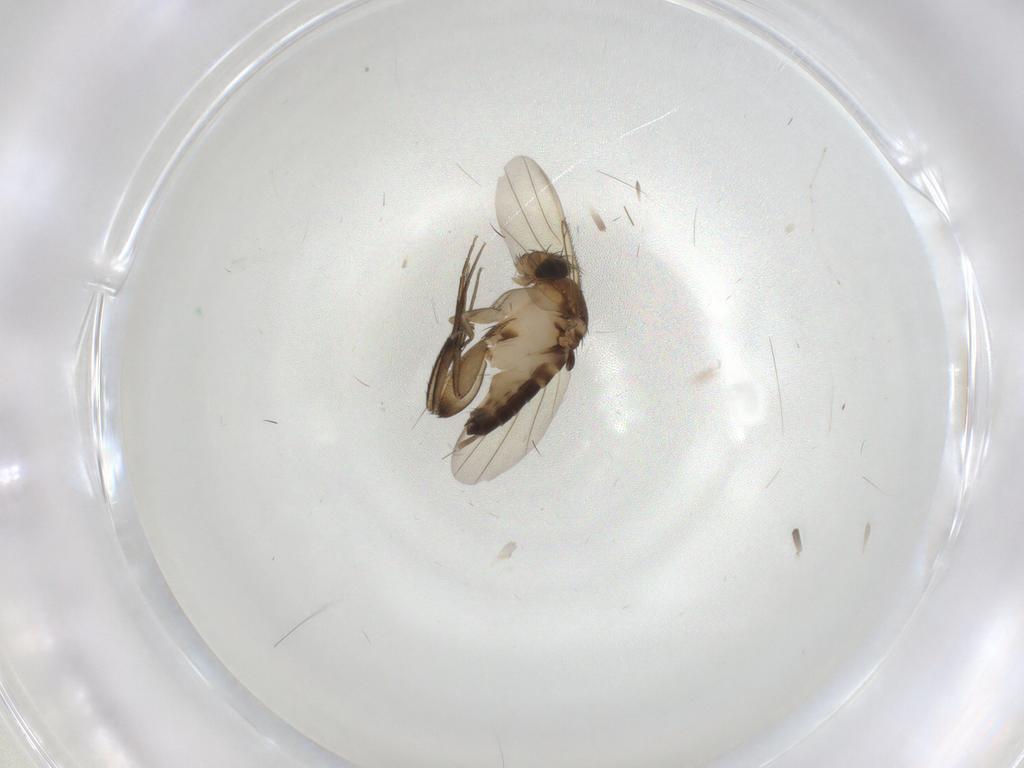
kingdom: Animalia
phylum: Arthropoda
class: Insecta
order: Diptera
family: Phoridae
